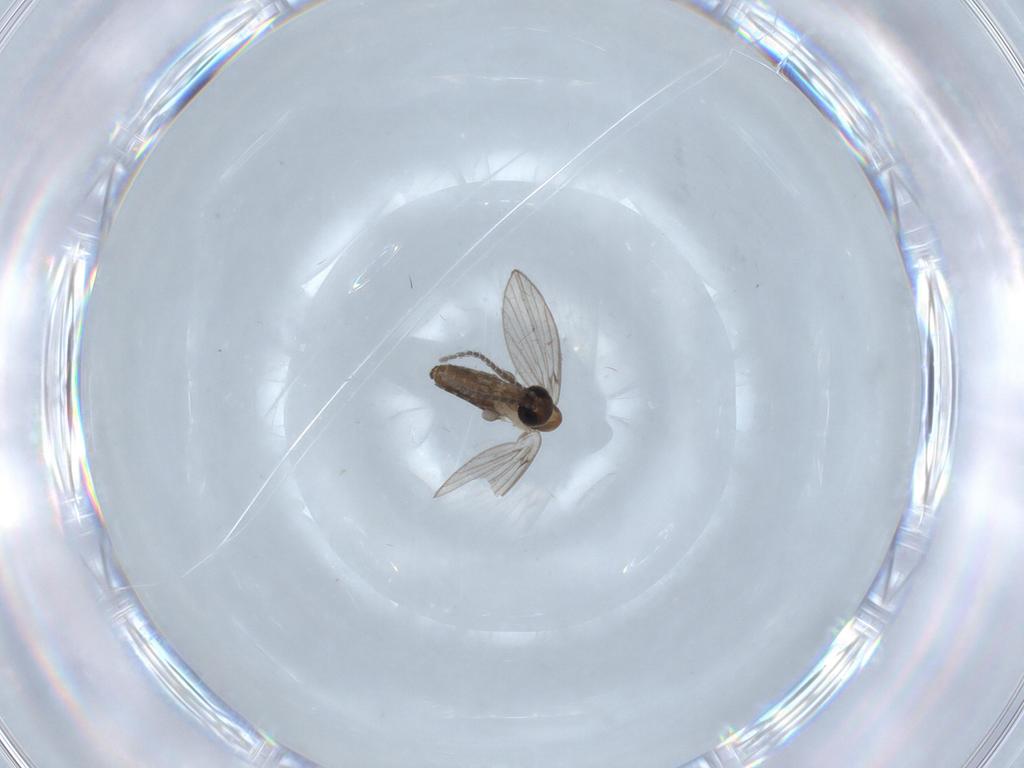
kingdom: Animalia
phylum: Arthropoda
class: Insecta
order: Diptera
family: Psychodidae
